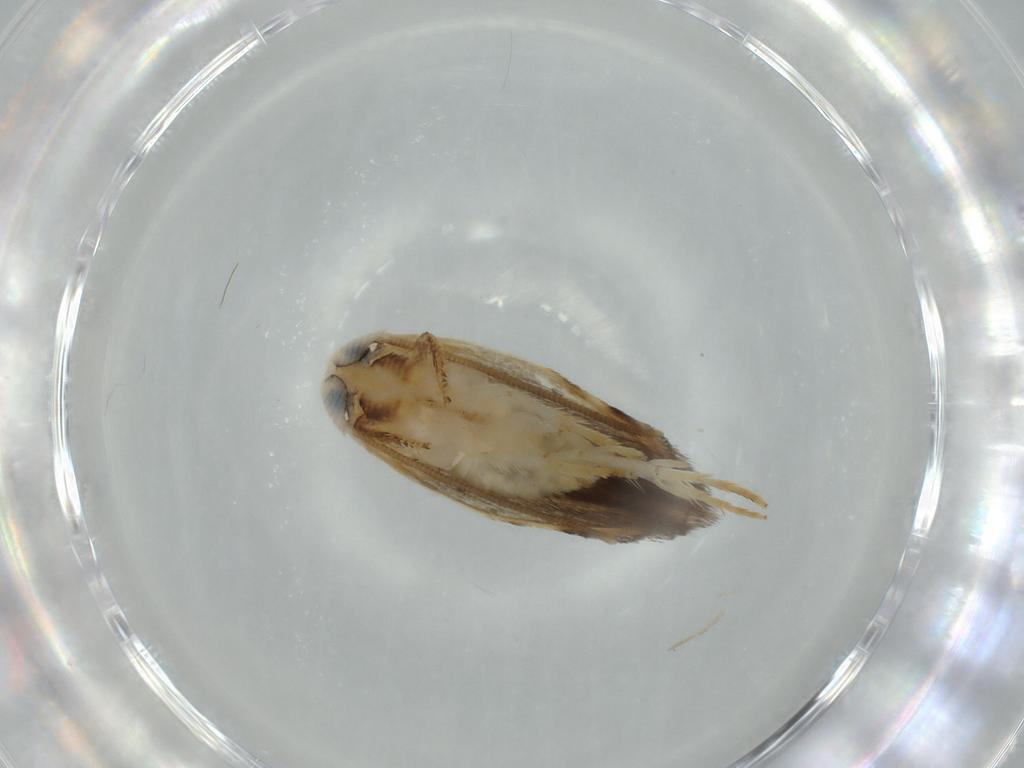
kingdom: Animalia
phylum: Arthropoda
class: Insecta
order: Lepidoptera
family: Opostegidae
